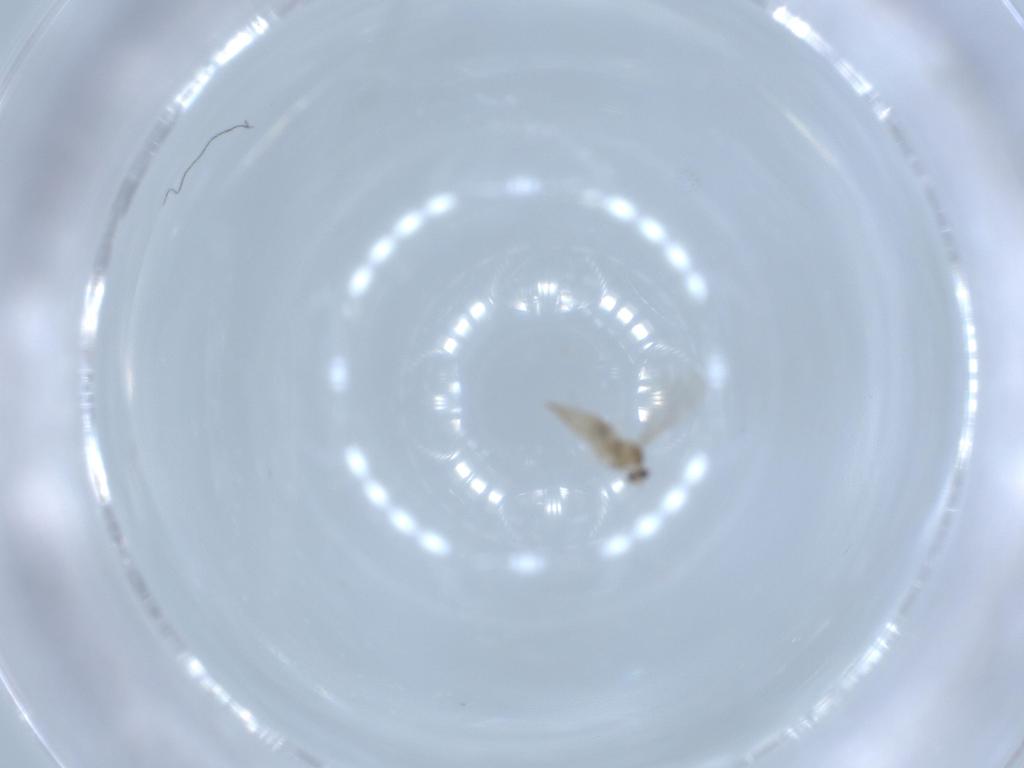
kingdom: Animalia
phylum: Arthropoda
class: Insecta
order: Diptera
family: Cecidomyiidae
